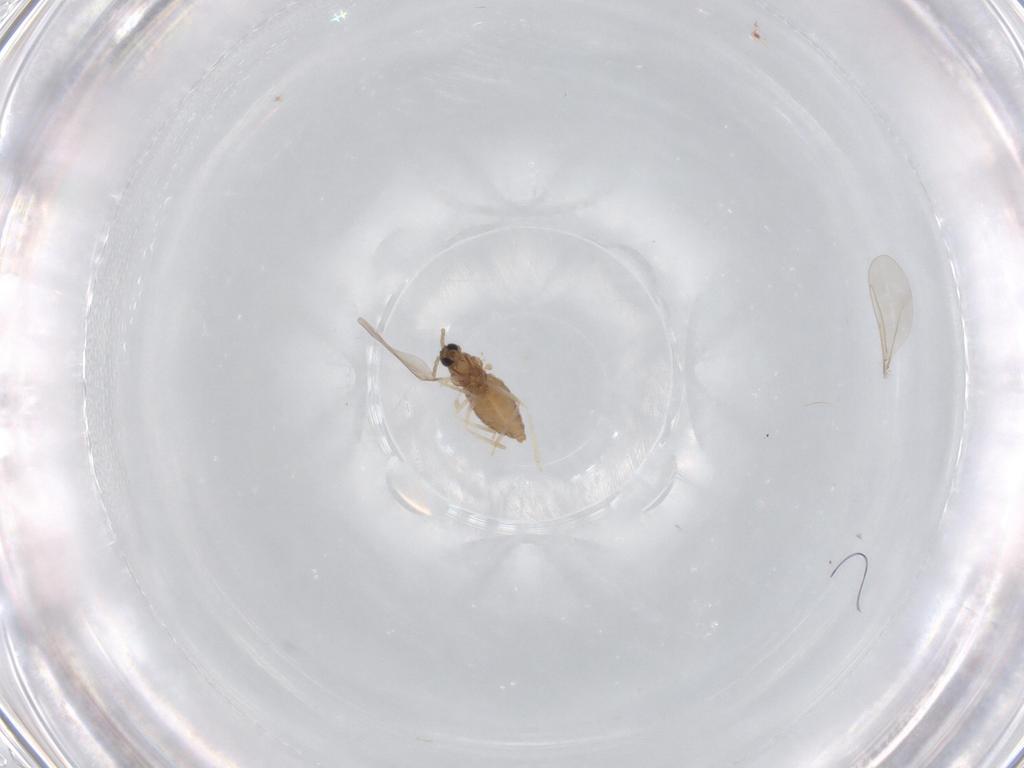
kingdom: Animalia
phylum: Arthropoda
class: Insecta
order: Diptera
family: Cecidomyiidae
